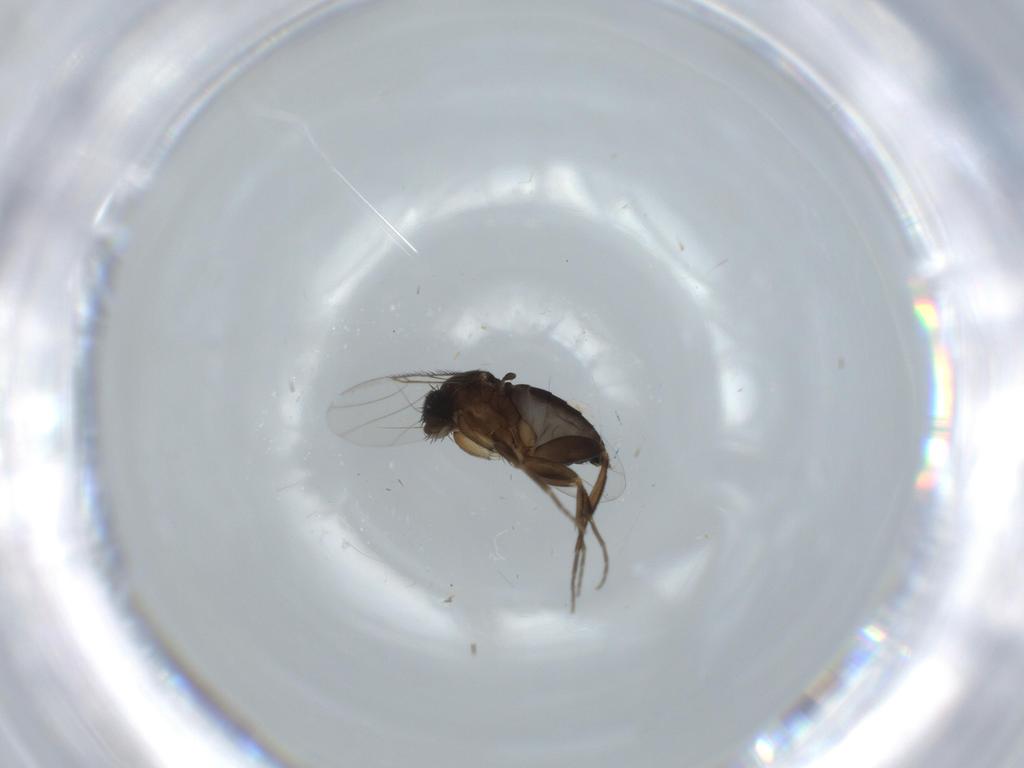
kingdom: Animalia
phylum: Arthropoda
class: Insecta
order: Diptera
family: Phoridae
